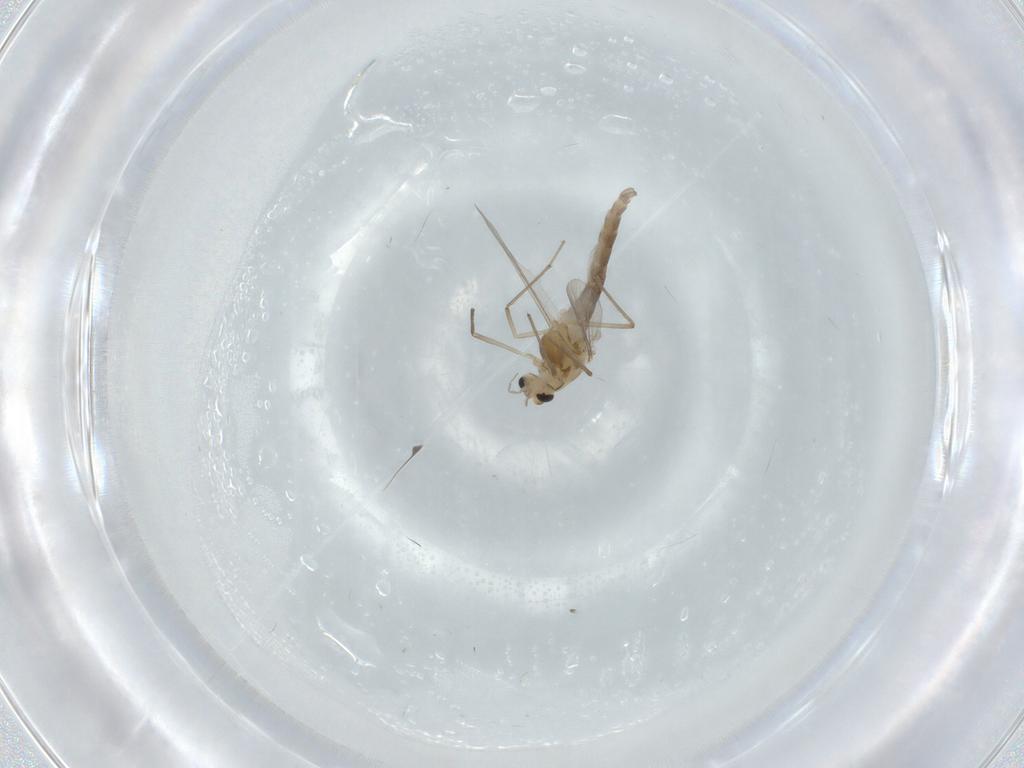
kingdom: Animalia
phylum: Arthropoda
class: Insecta
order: Diptera
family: Chironomidae
